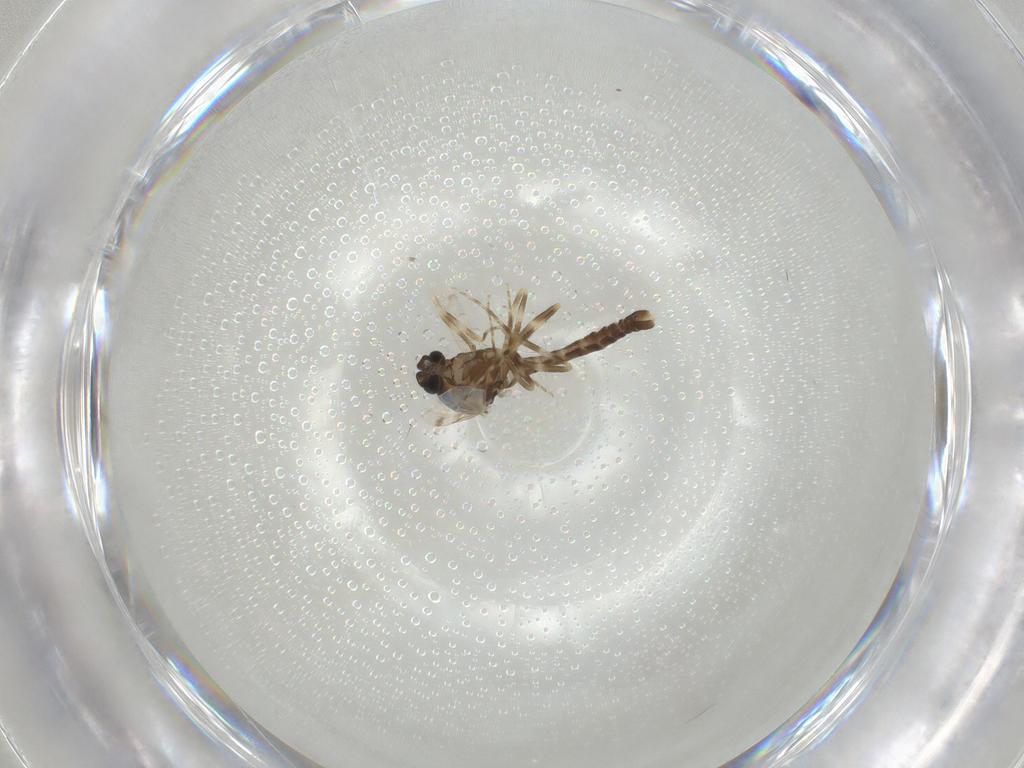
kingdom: Animalia
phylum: Arthropoda
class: Insecta
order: Diptera
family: Ceratopogonidae
